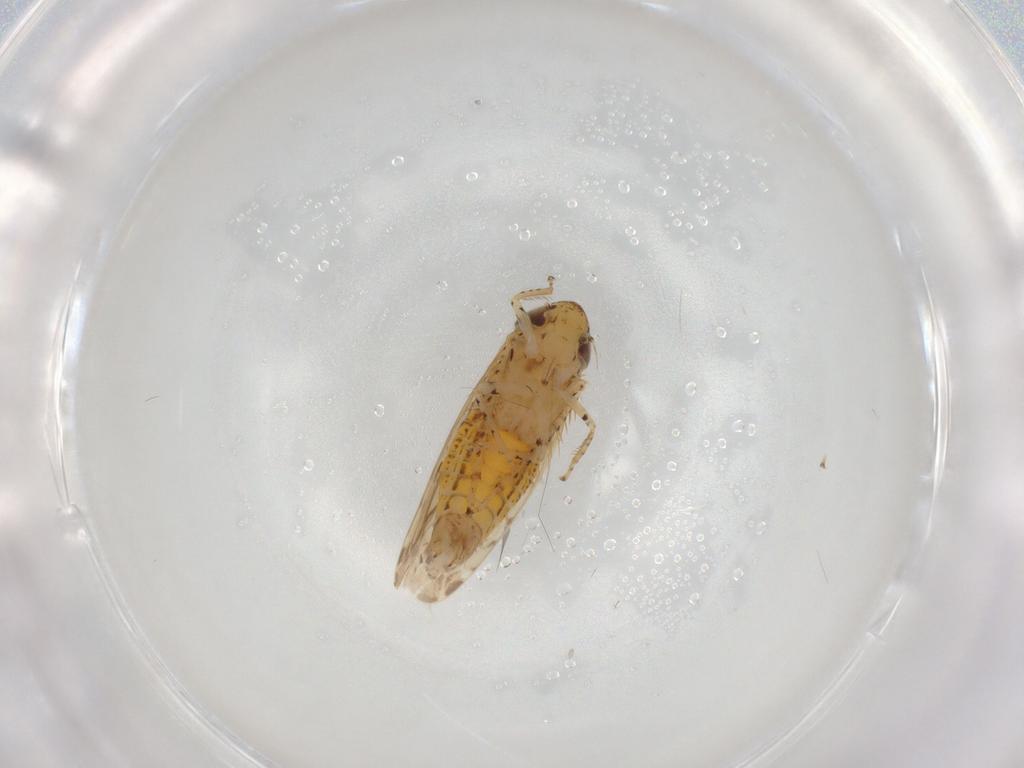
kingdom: Animalia
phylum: Arthropoda
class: Insecta
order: Hemiptera
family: Cicadellidae
